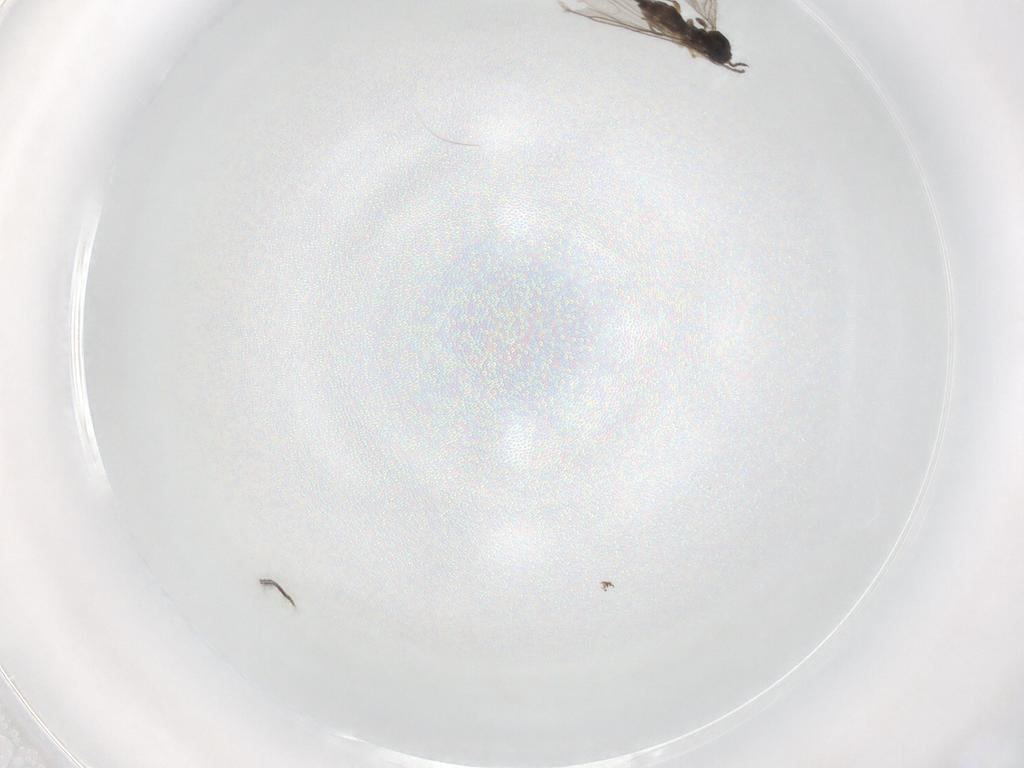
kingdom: Animalia
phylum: Arthropoda
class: Insecta
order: Diptera
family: Sciaridae
